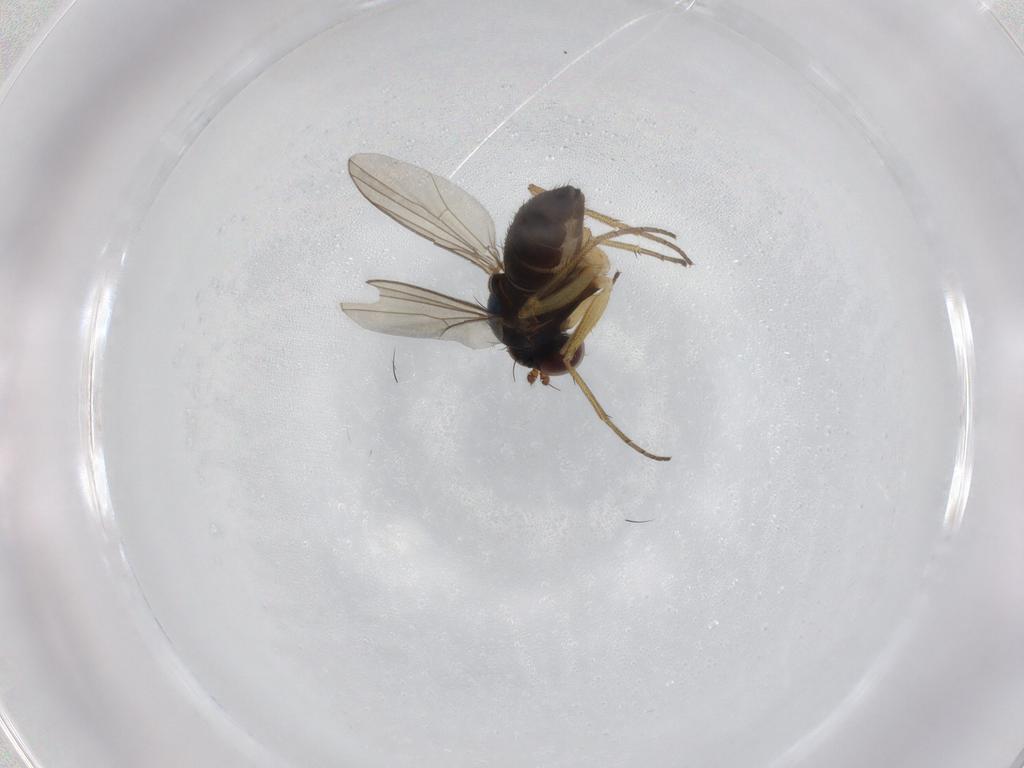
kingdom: Animalia
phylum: Arthropoda
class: Insecta
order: Diptera
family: Dolichopodidae
